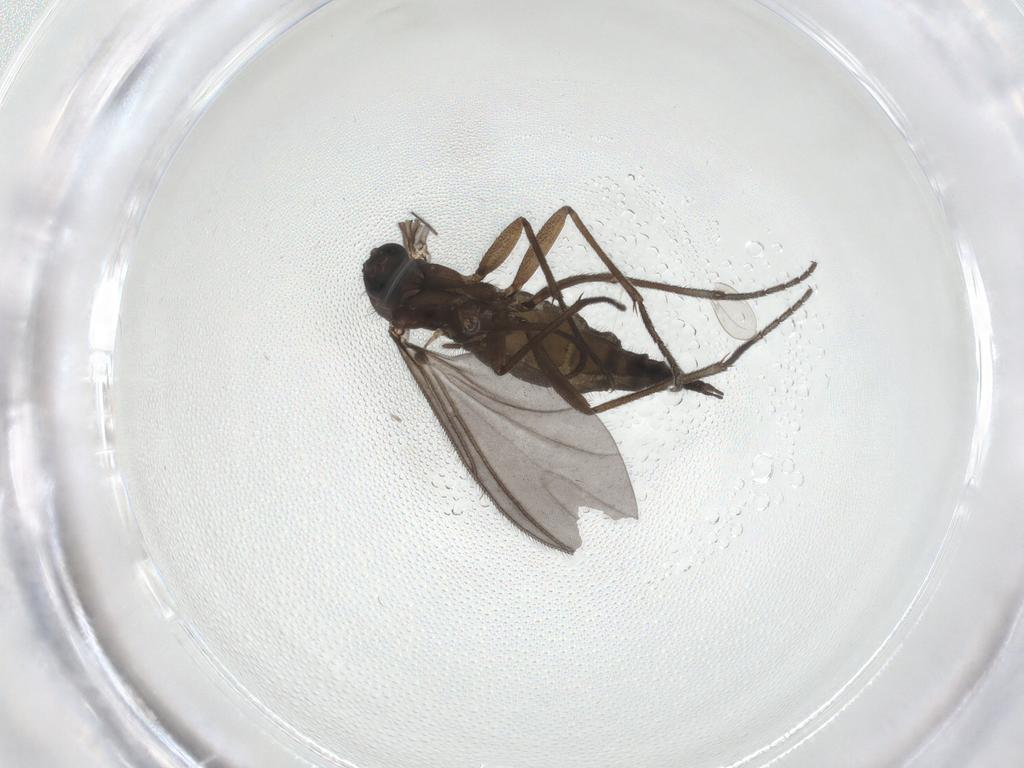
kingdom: Animalia
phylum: Arthropoda
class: Insecta
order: Diptera
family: Sciaridae
